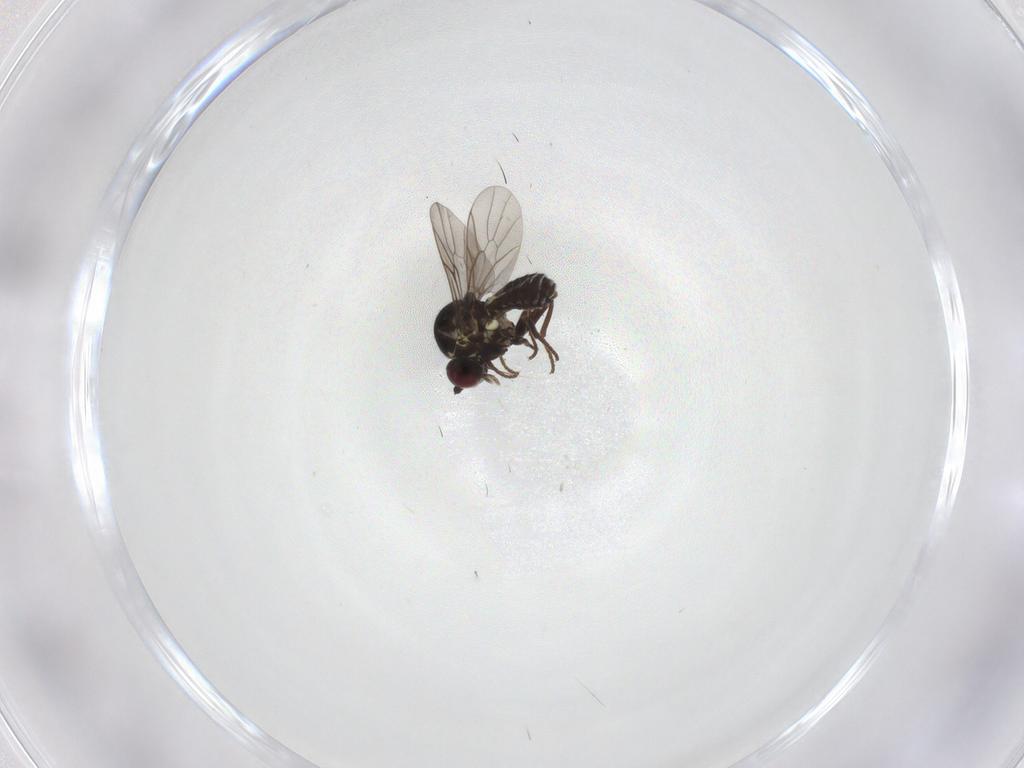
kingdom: Animalia
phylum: Arthropoda
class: Insecta
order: Diptera
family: Bombyliidae
